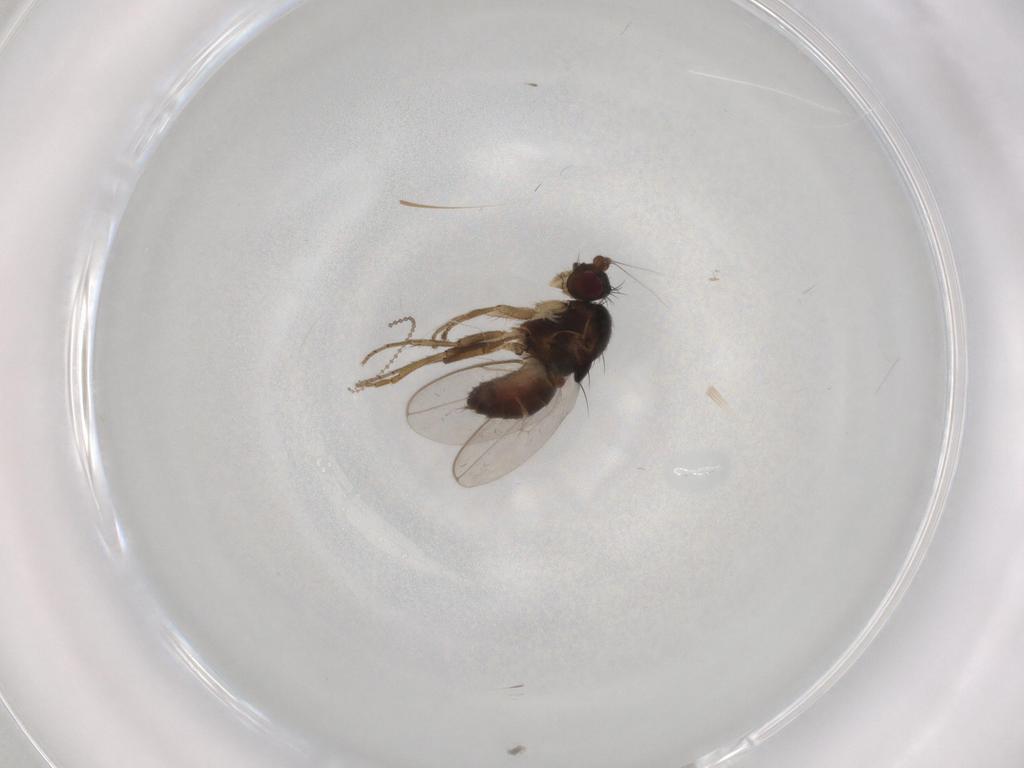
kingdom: Animalia
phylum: Arthropoda
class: Insecta
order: Diptera
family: Sphaeroceridae
